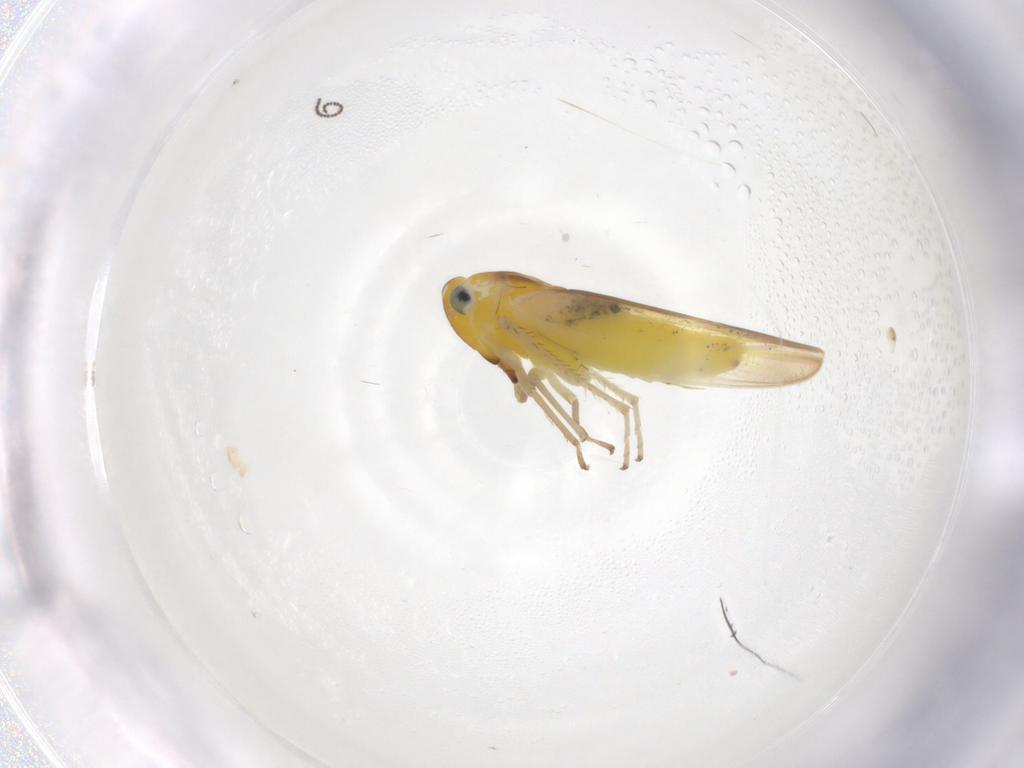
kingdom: Animalia
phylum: Arthropoda
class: Insecta
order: Hemiptera
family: Cicadellidae
